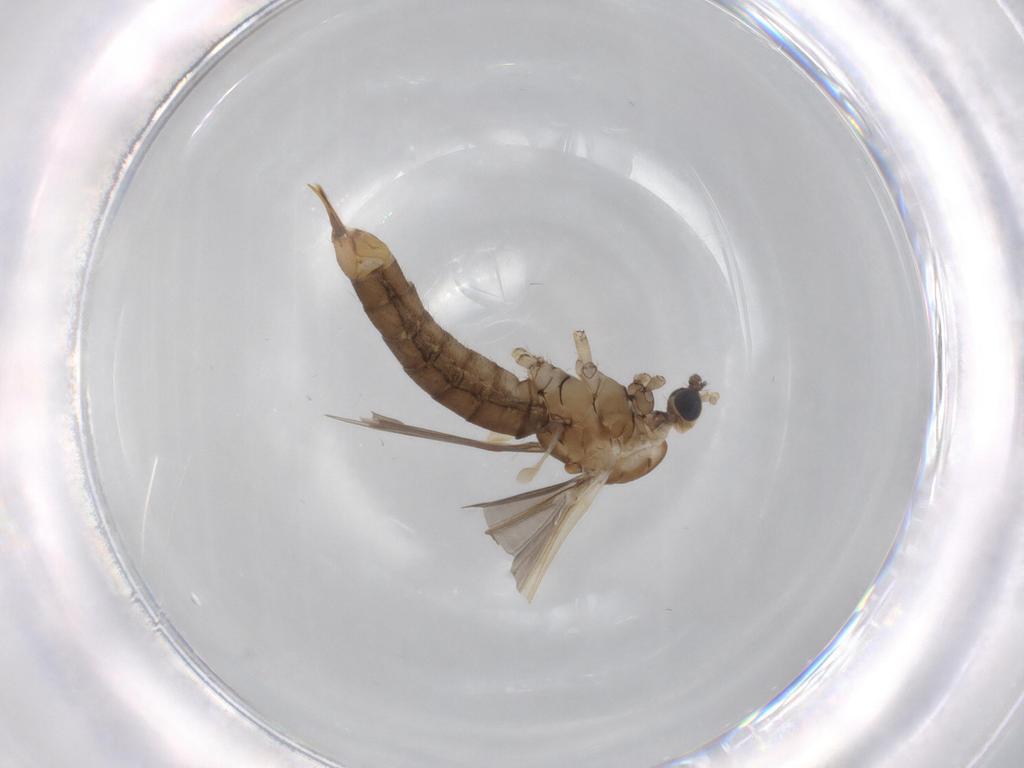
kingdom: Animalia
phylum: Arthropoda
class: Insecta
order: Diptera
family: Limoniidae
